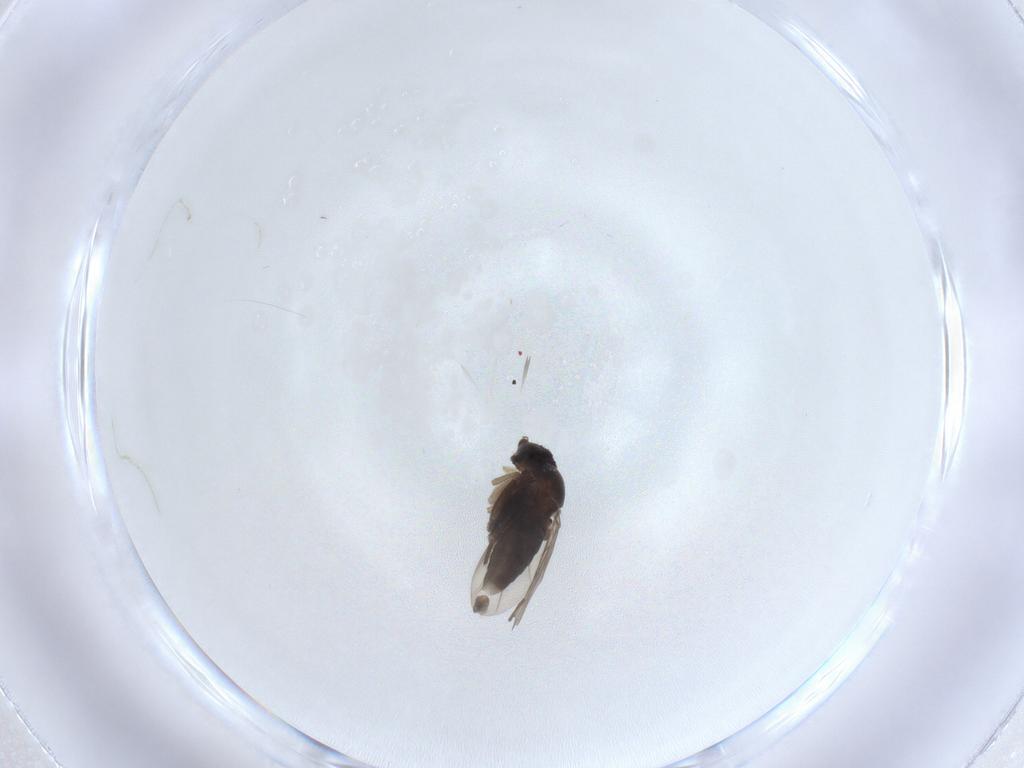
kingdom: Animalia
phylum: Arthropoda
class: Insecta
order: Diptera
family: Phoridae
